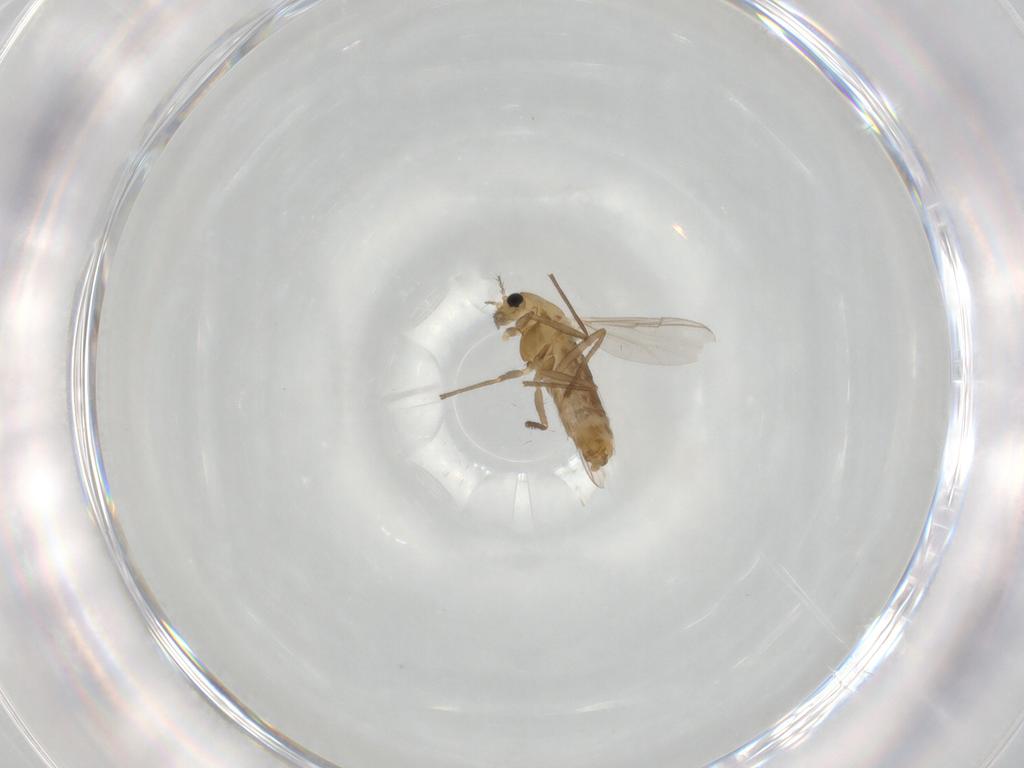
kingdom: Animalia
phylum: Arthropoda
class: Insecta
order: Diptera
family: Chironomidae
